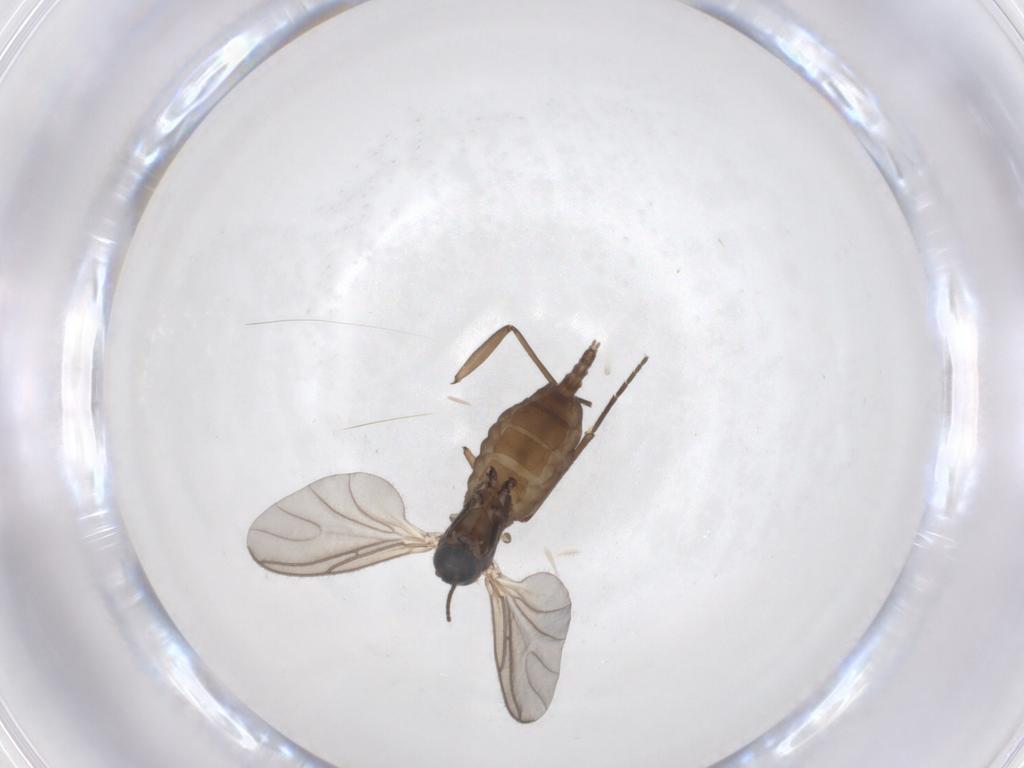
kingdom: Animalia
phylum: Arthropoda
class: Insecta
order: Diptera
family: Sciaridae
